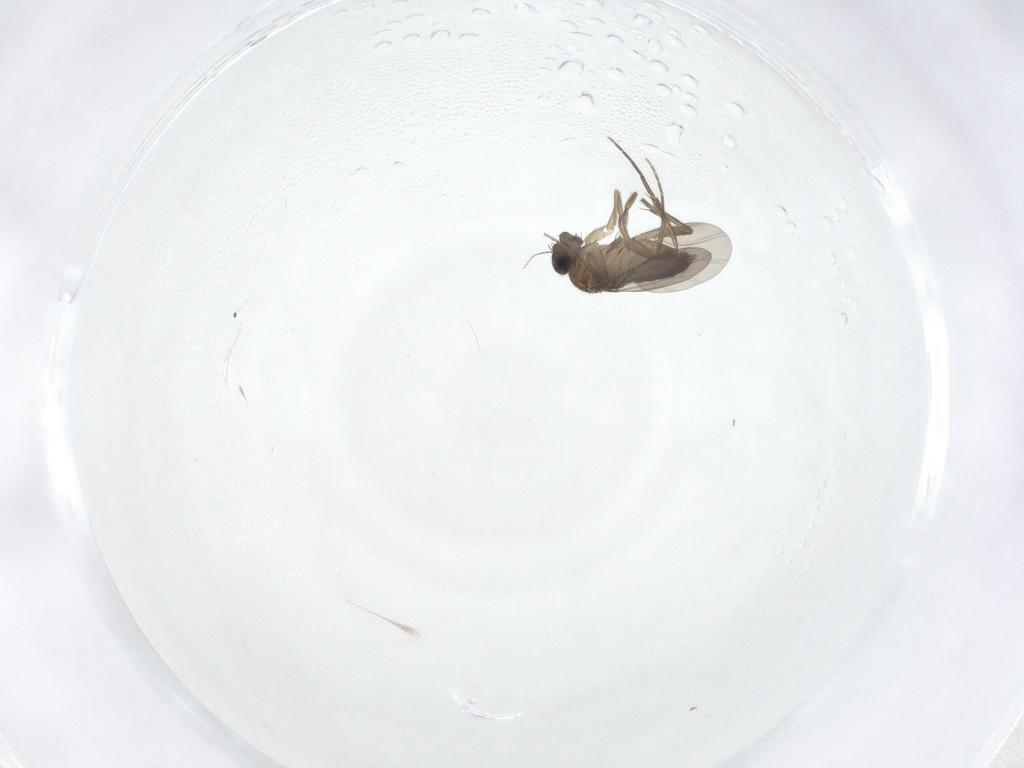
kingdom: Animalia
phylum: Arthropoda
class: Insecta
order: Diptera
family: Phoridae
